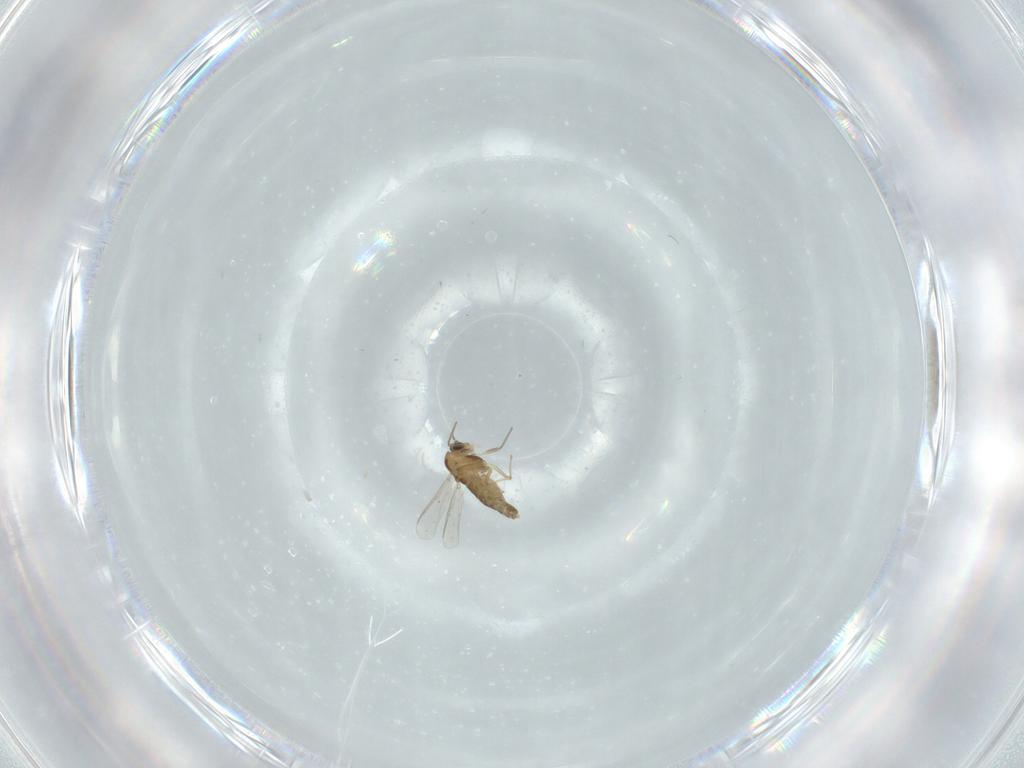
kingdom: Animalia
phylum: Arthropoda
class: Insecta
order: Diptera
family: Chironomidae
